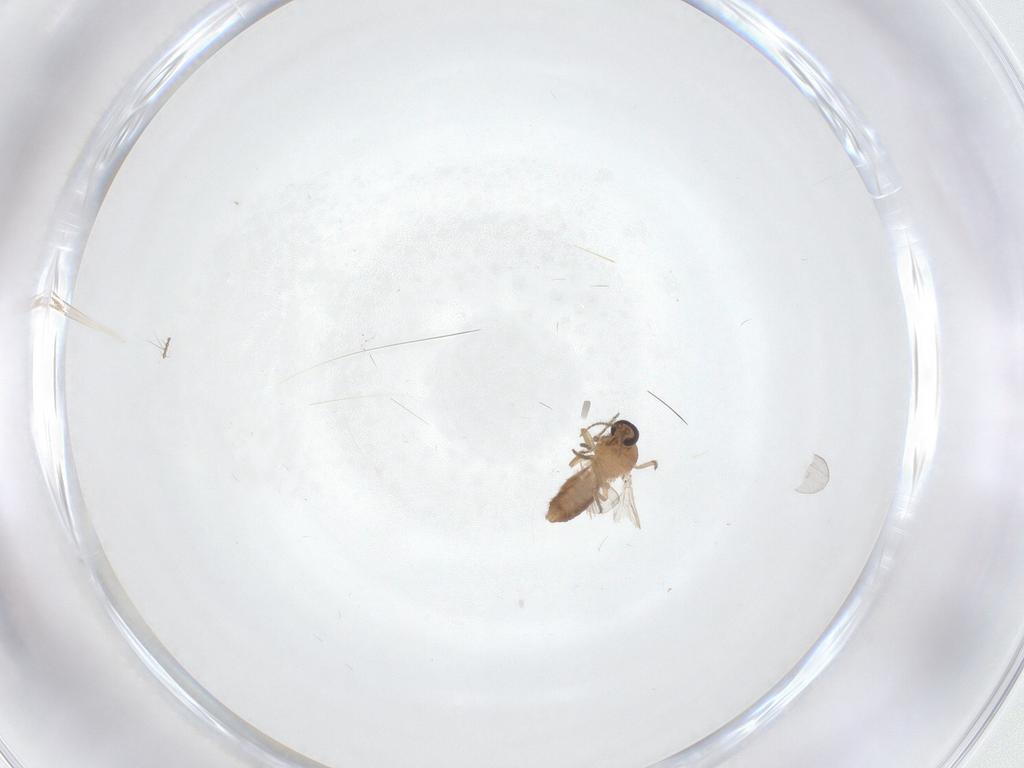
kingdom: Animalia
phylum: Arthropoda
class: Insecta
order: Diptera
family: Ceratopogonidae
